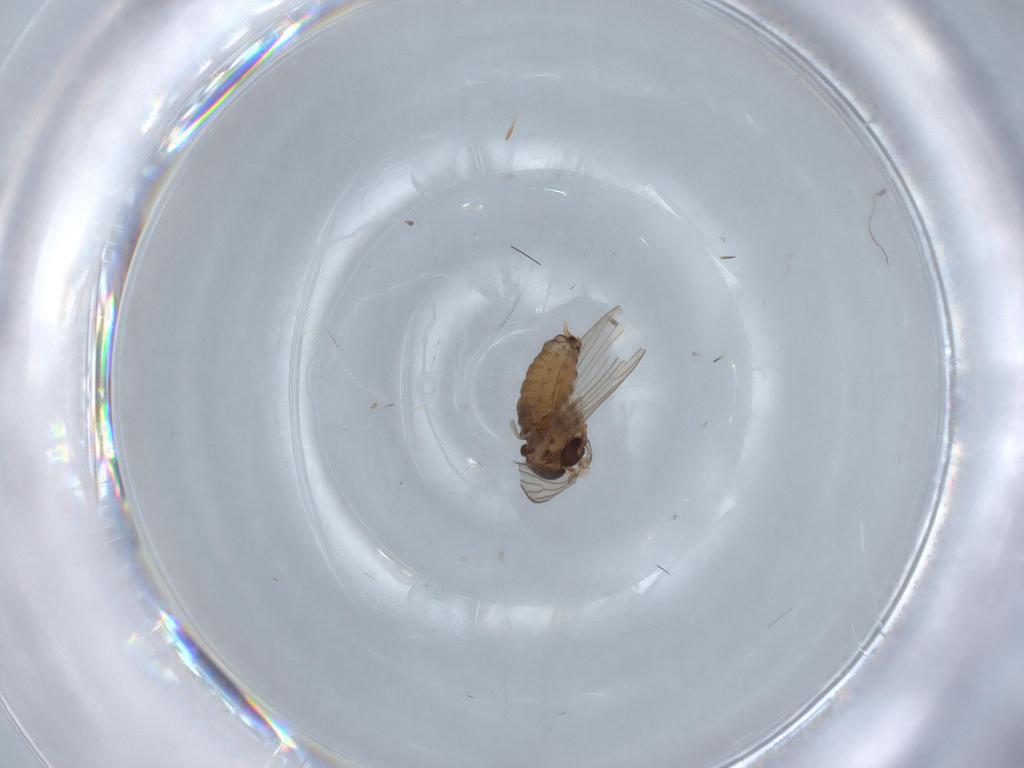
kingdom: Animalia
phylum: Arthropoda
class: Insecta
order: Diptera
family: Psychodidae
